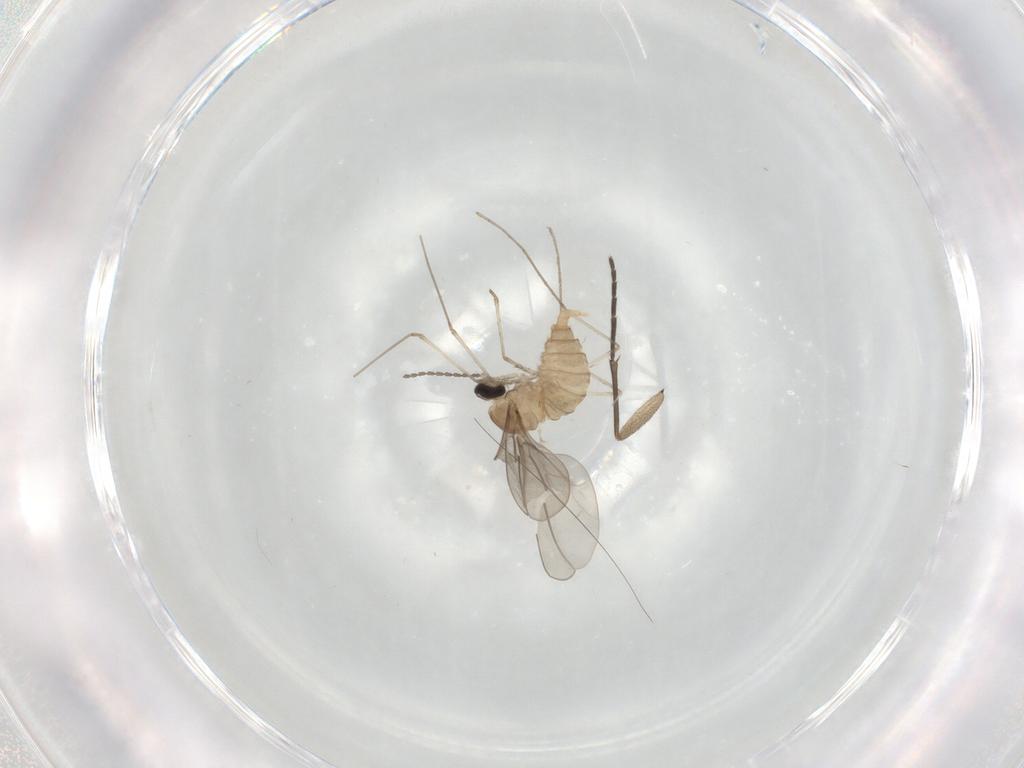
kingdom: Animalia
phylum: Arthropoda
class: Insecta
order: Diptera
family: Cecidomyiidae
